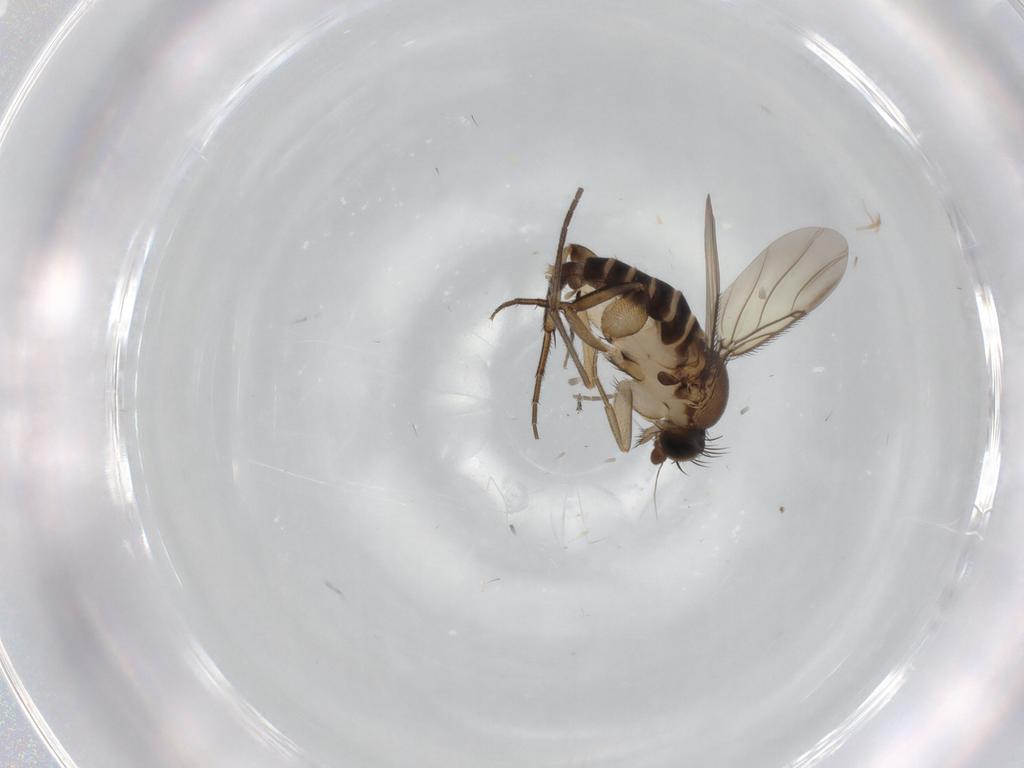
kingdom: Animalia
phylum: Arthropoda
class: Insecta
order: Diptera
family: Phoridae
